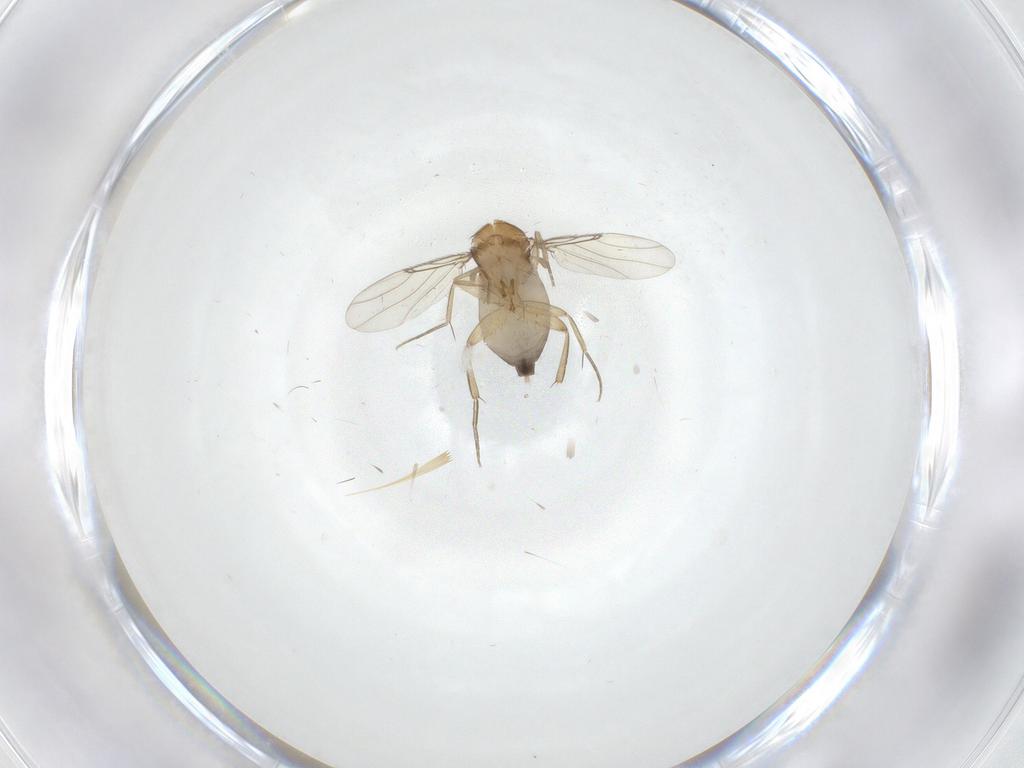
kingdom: Animalia
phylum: Arthropoda
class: Insecta
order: Diptera
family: Phoridae
